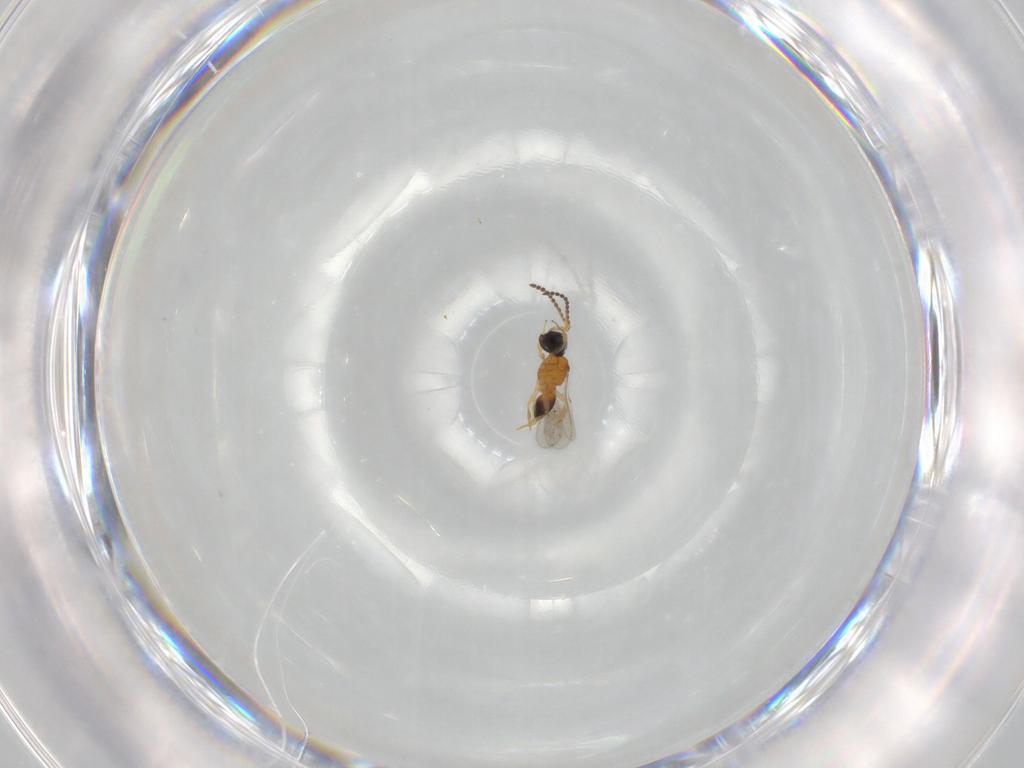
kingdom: Animalia
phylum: Arthropoda
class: Insecta
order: Hymenoptera
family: Scelionidae
